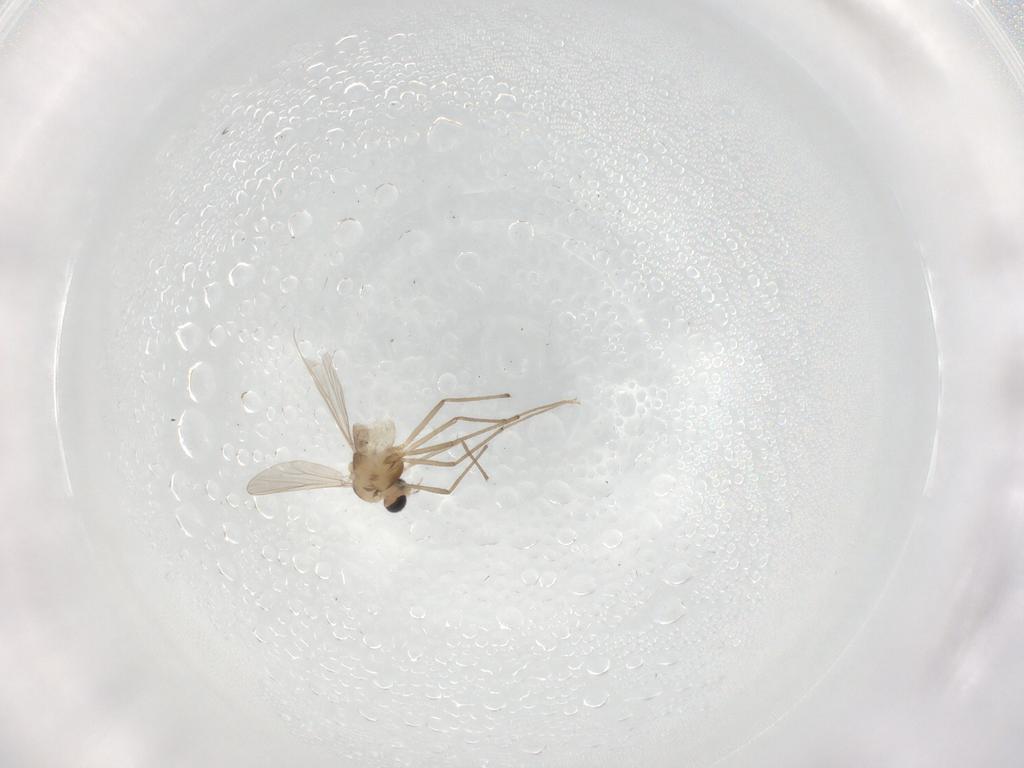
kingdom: Animalia
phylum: Arthropoda
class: Insecta
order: Diptera
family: Cecidomyiidae
